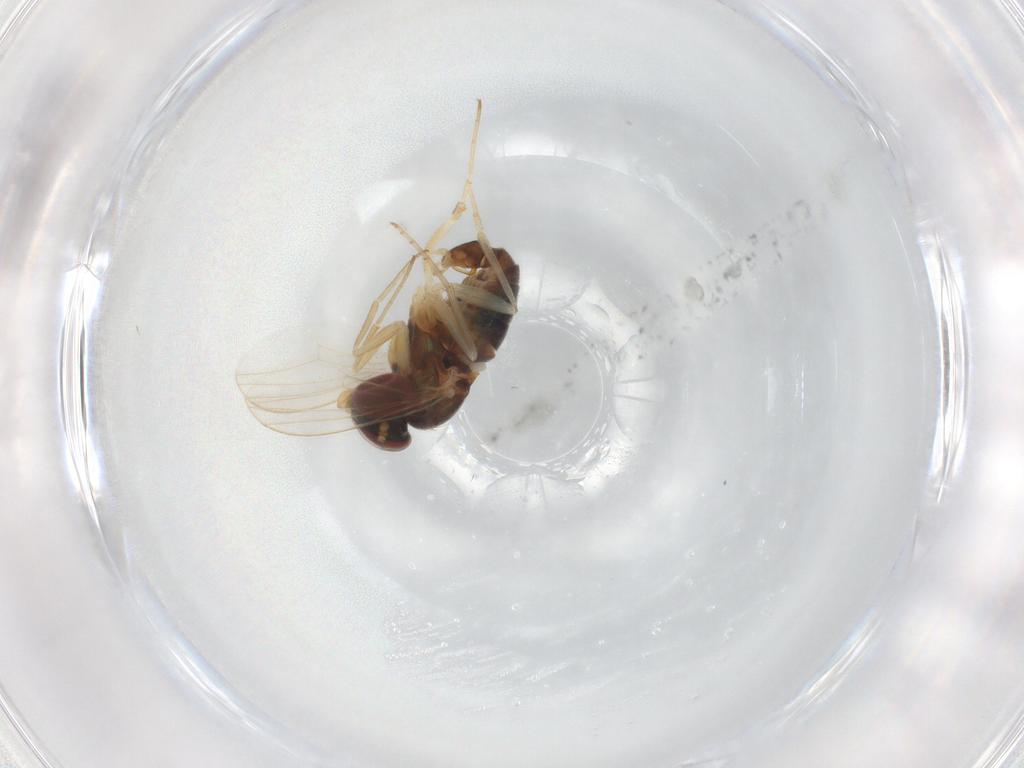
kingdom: Animalia
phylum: Arthropoda
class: Insecta
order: Diptera
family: Dolichopodidae
